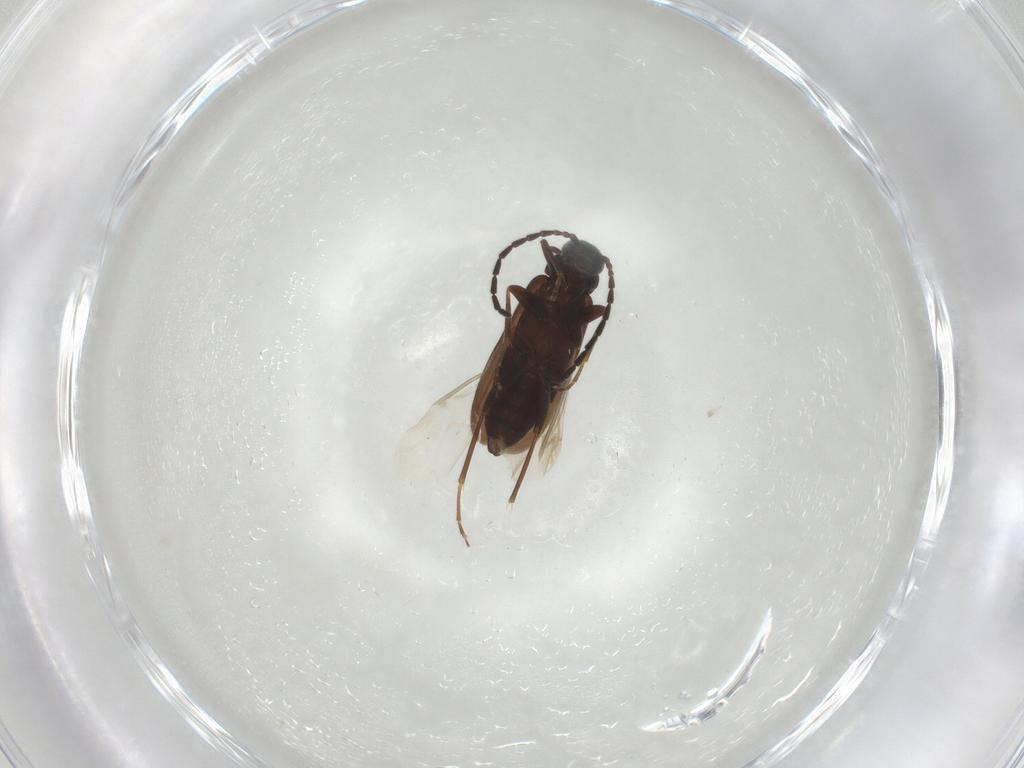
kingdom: Animalia
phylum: Arthropoda
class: Insecta
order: Coleoptera
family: Scraptiidae
